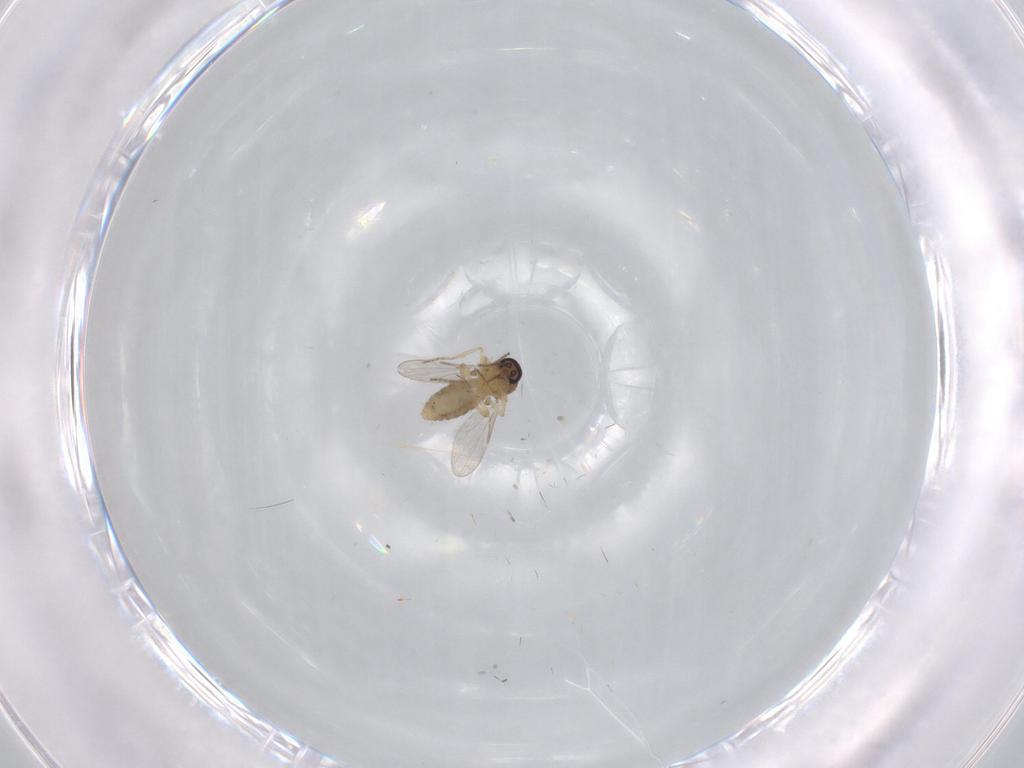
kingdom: Animalia
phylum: Arthropoda
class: Insecta
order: Diptera
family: Ceratopogonidae
